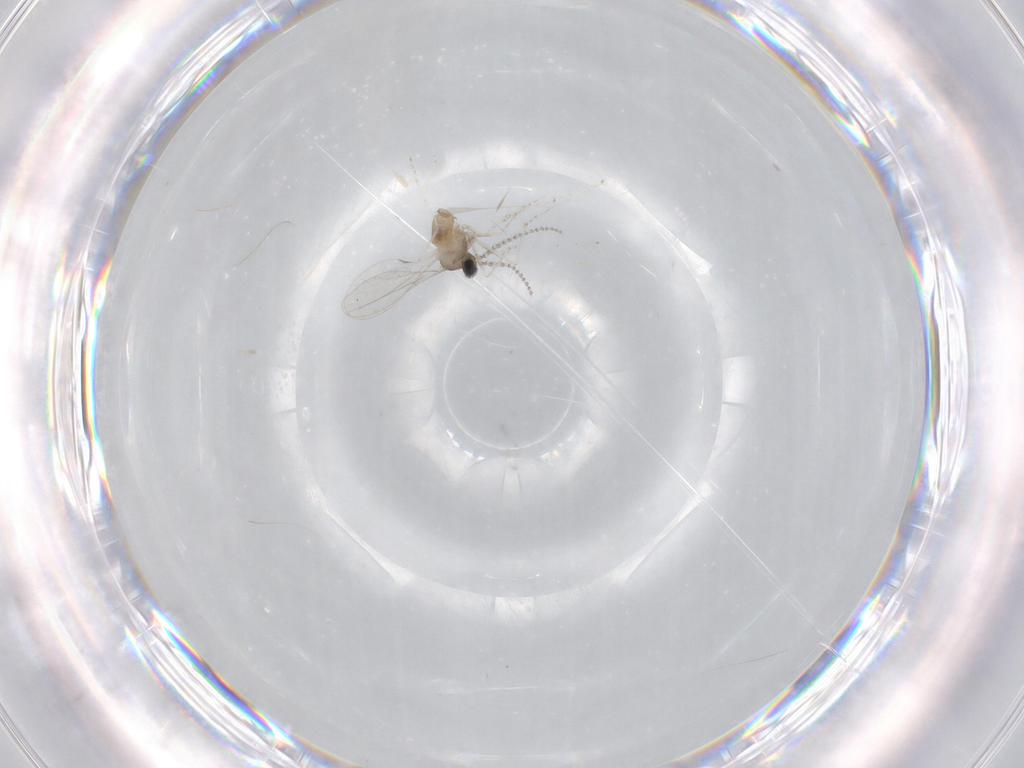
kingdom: Animalia
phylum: Arthropoda
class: Insecta
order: Diptera
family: Cecidomyiidae
